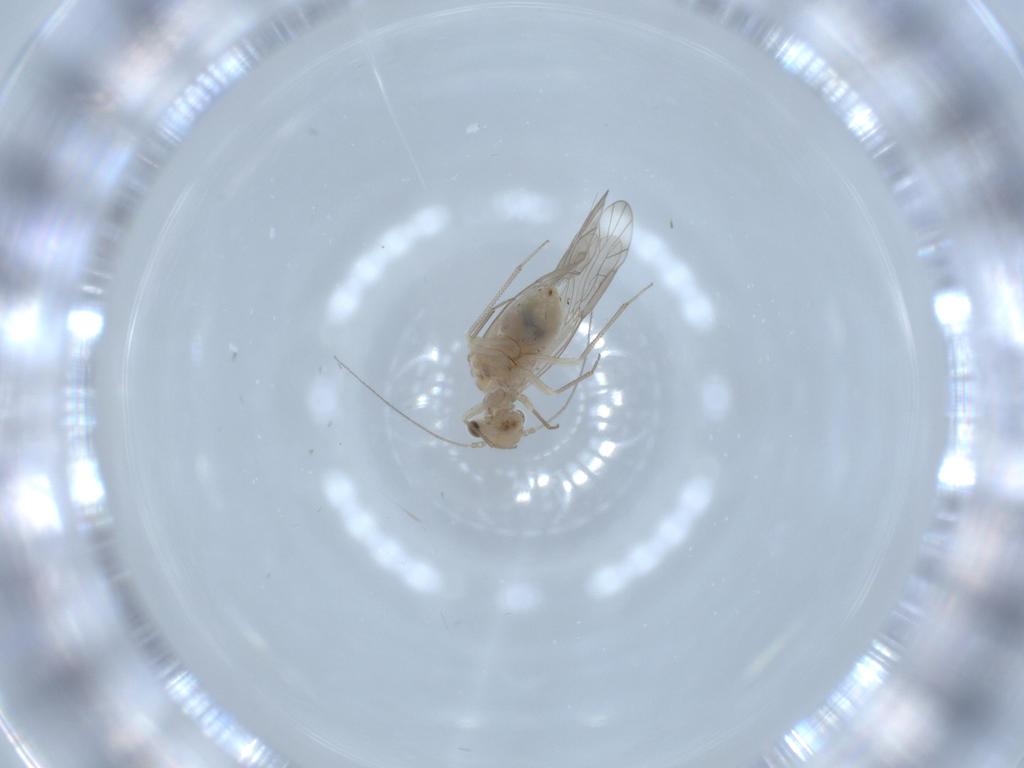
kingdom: Animalia
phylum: Arthropoda
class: Insecta
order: Psocodea
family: Lachesillidae
